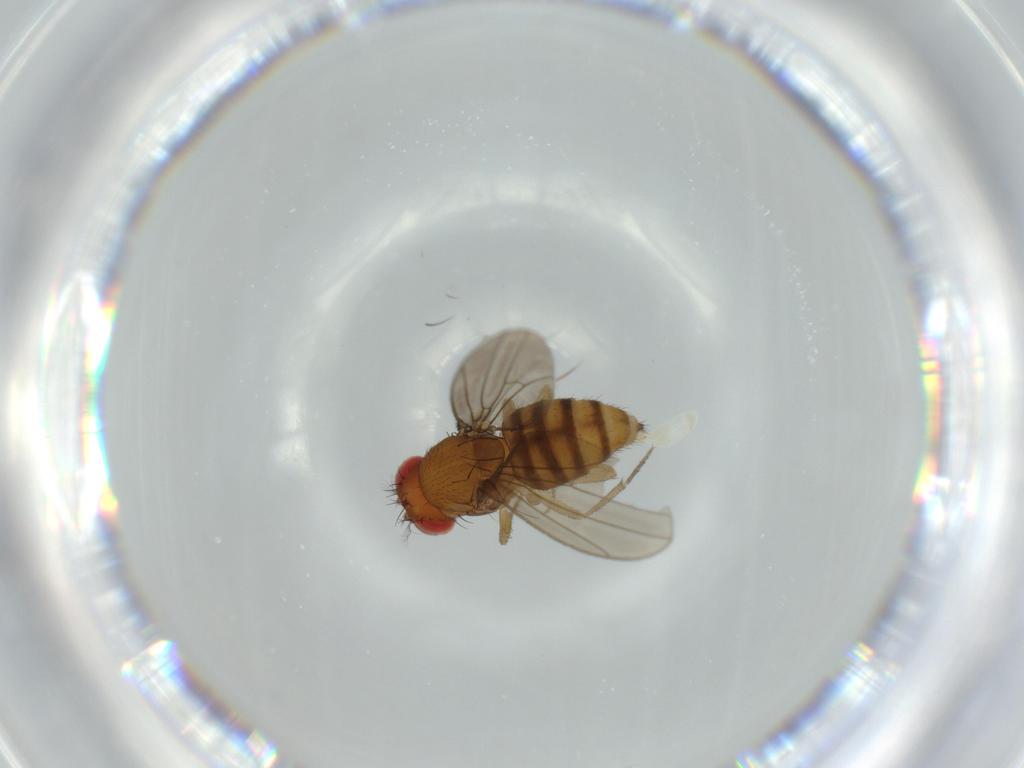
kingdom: Animalia
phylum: Arthropoda
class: Insecta
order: Diptera
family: Drosophilidae
